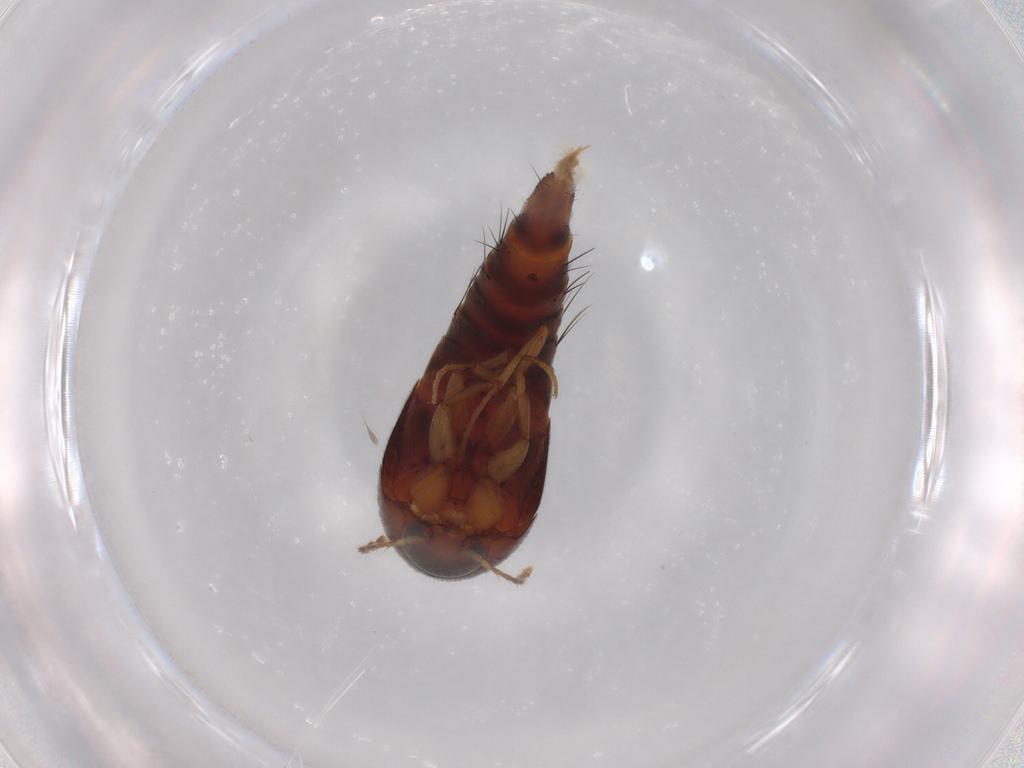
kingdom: Animalia
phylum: Arthropoda
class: Insecta
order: Coleoptera
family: Staphylinidae
